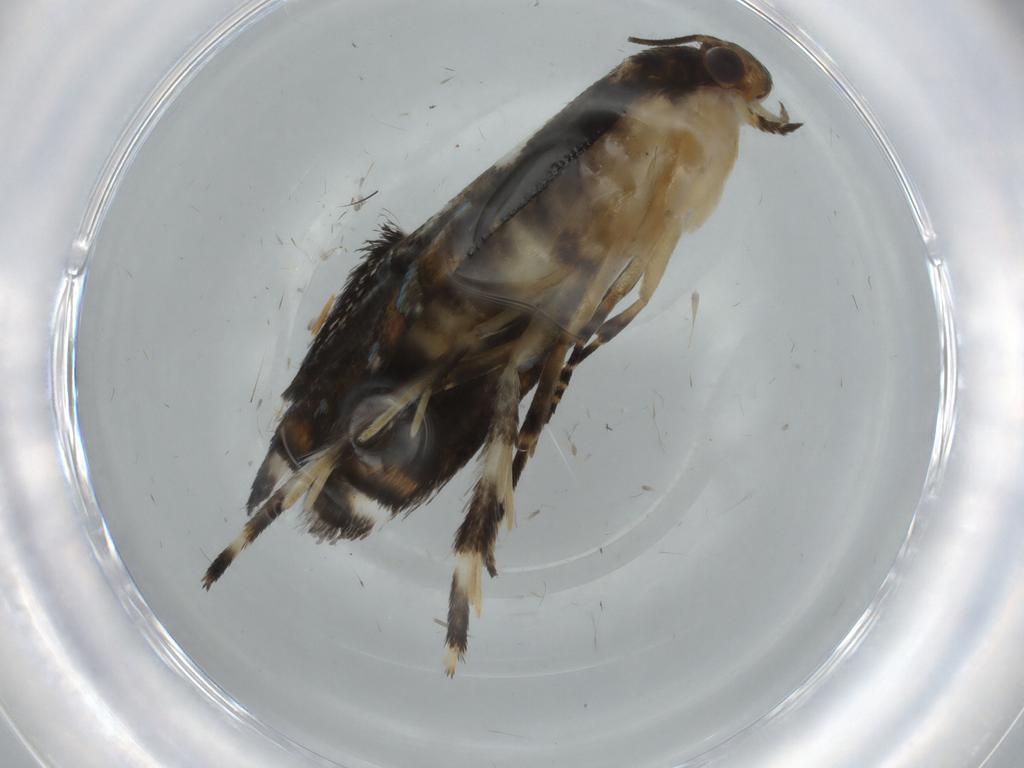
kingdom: Animalia
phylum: Arthropoda
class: Insecta
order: Lepidoptera
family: Glyphipterigidae
